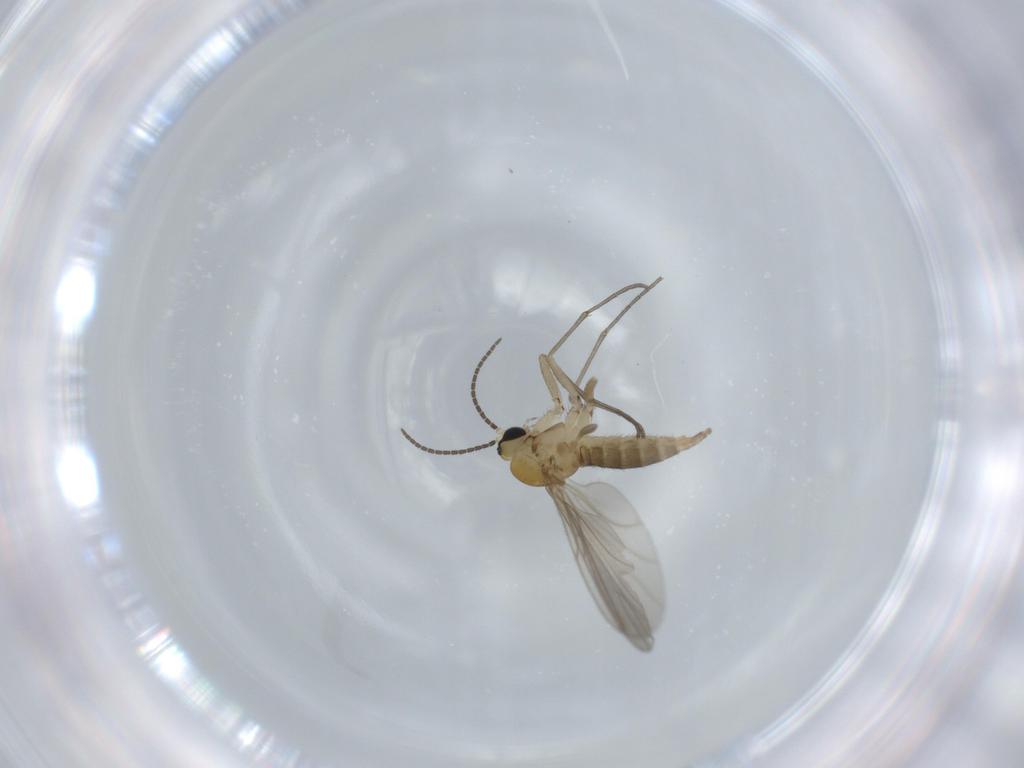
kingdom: Animalia
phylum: Arthropoda
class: Insecta
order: Diptera
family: Sciaridae
